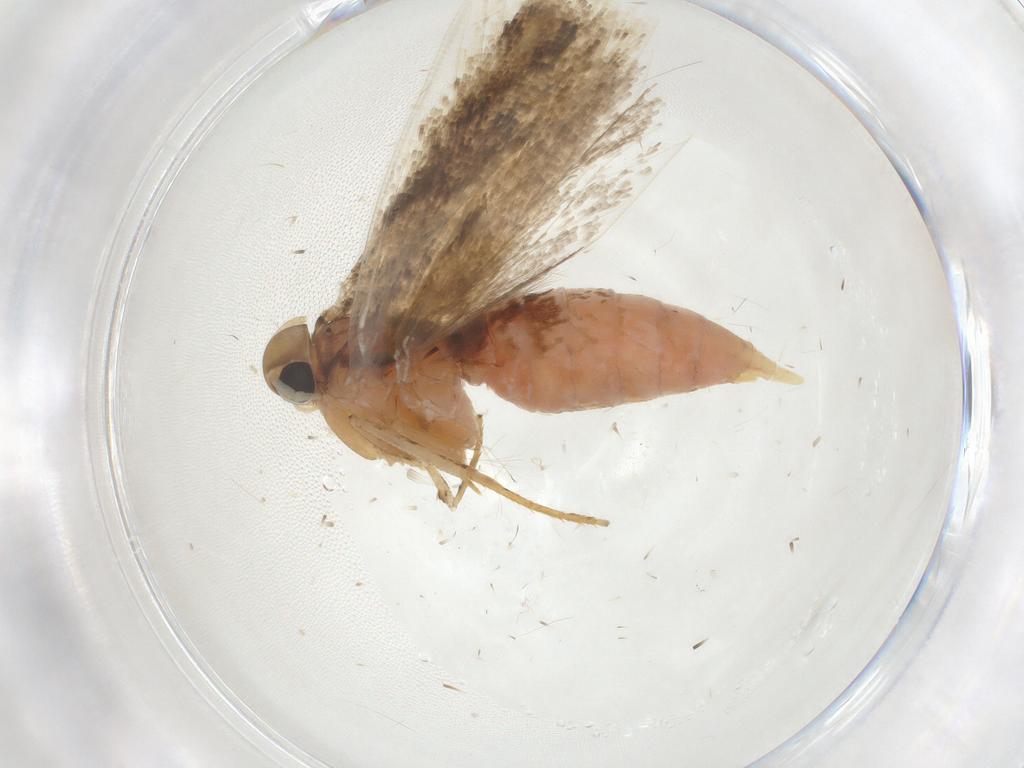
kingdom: Animalia
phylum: Arthropoda
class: Insecta
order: Lepidoptera
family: Gelechiidae
